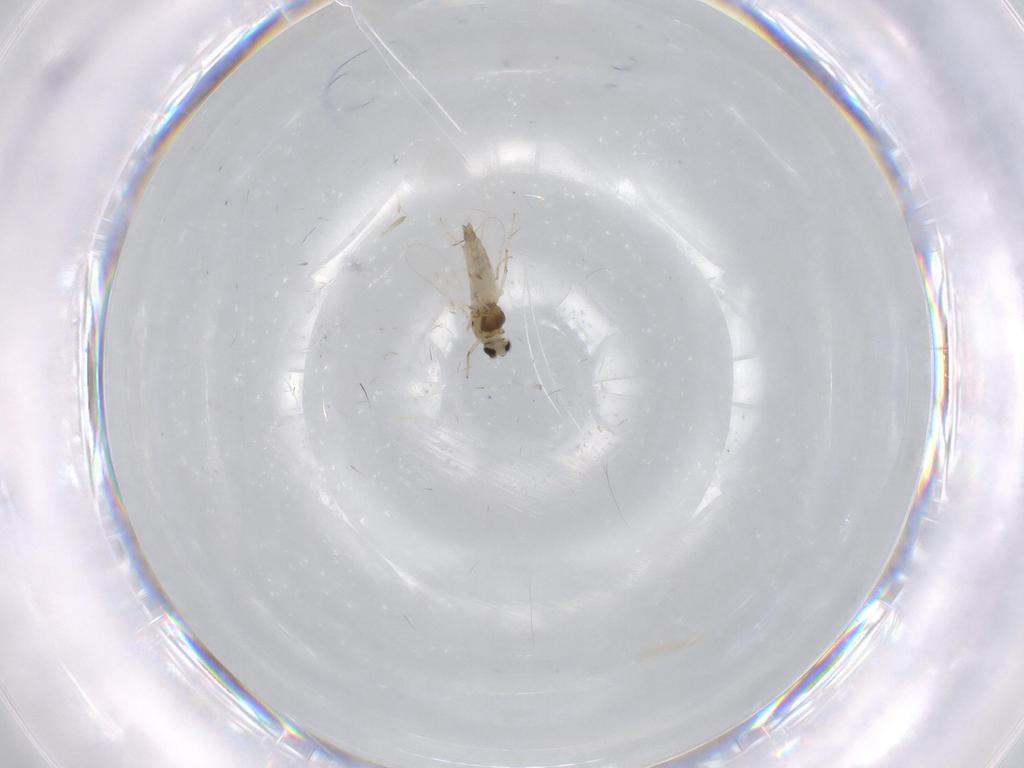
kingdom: Animalia
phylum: Arthropoda
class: Insecta
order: Diptera
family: Chironomidae
